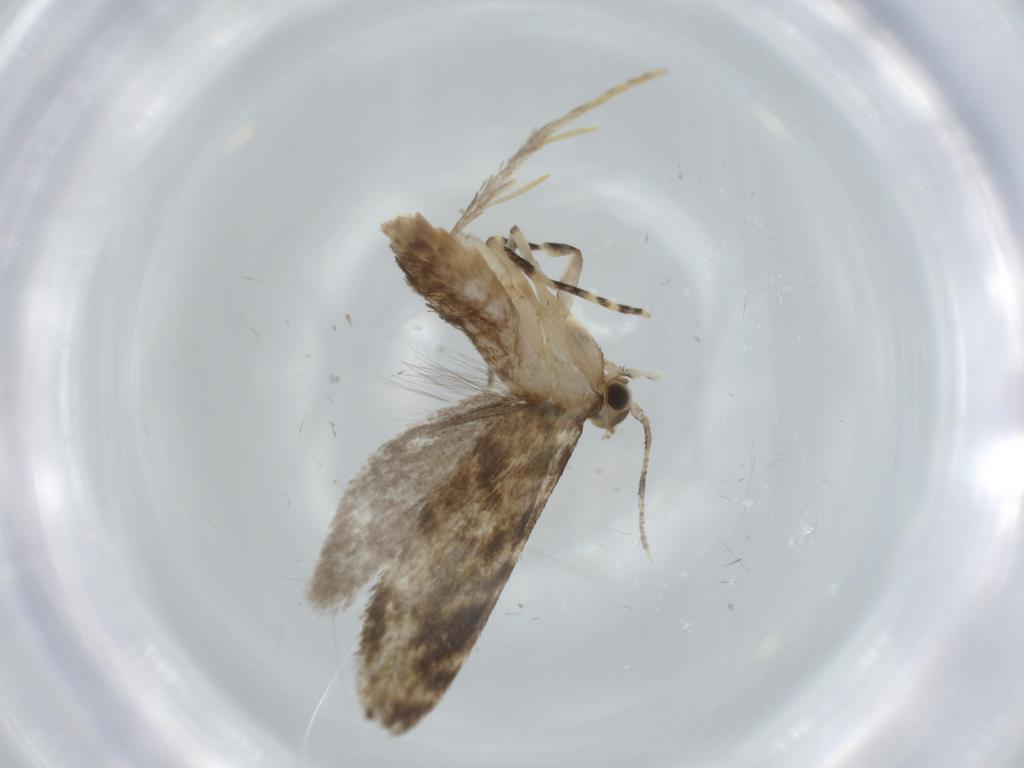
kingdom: Animalia
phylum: Arthropoda
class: Insecta
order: Lepidoptera
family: Tineidae
